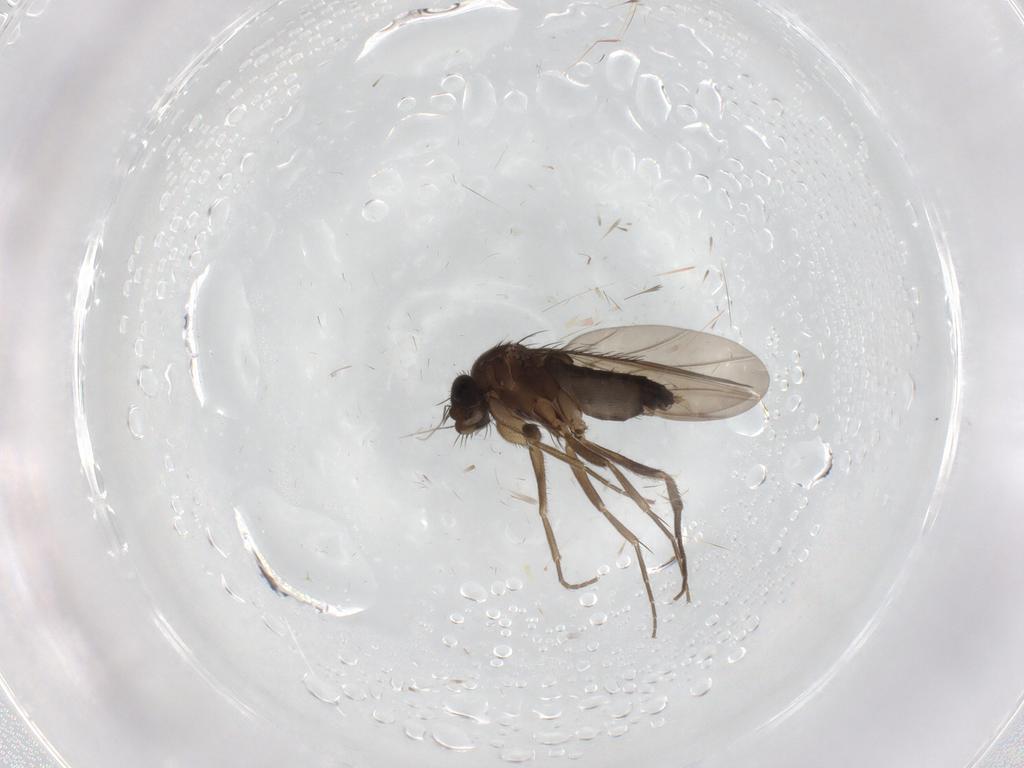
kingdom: Animalia
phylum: Arthropoda
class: Insecta
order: Diptera
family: Phoridae
